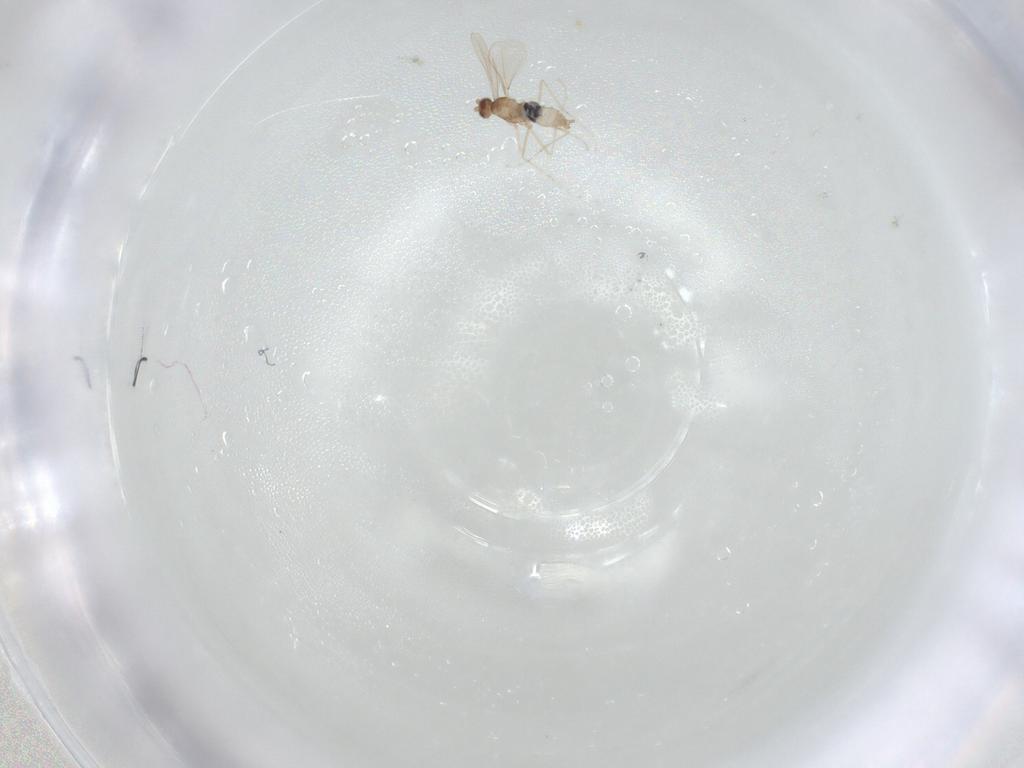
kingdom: Animalia
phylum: Arthropoda
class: Insecta
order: Diptera
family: Cecidomyiidae
